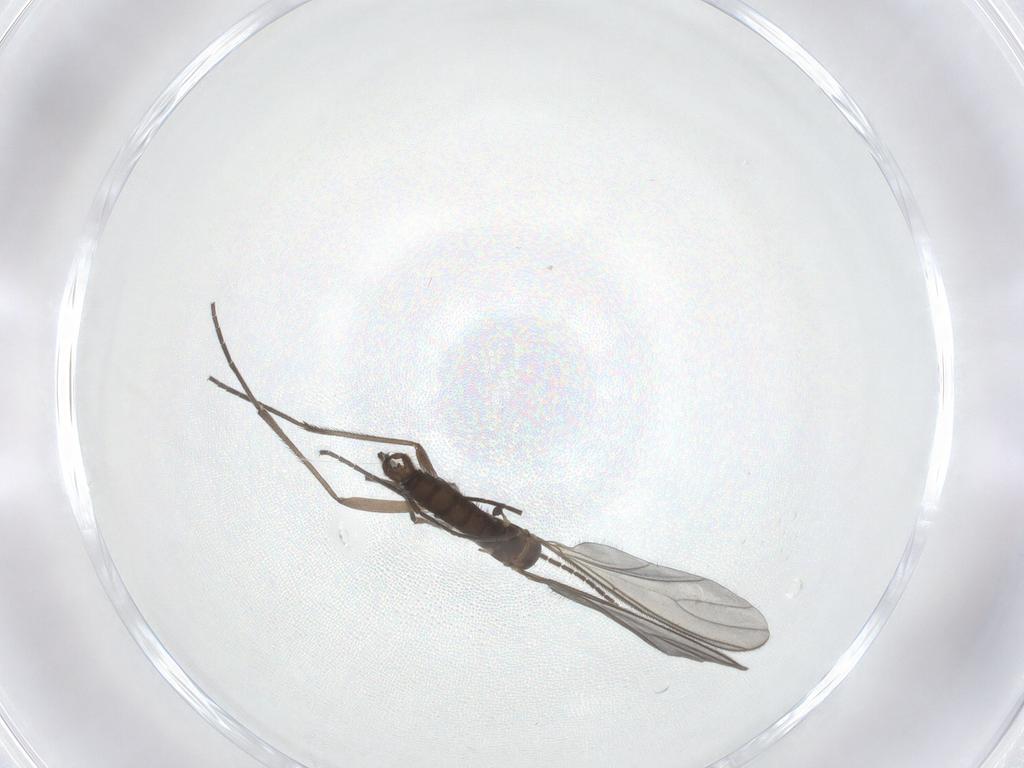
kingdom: Animalia
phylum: Arthropoda
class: Insecta
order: Diptera
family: Sciaridae
